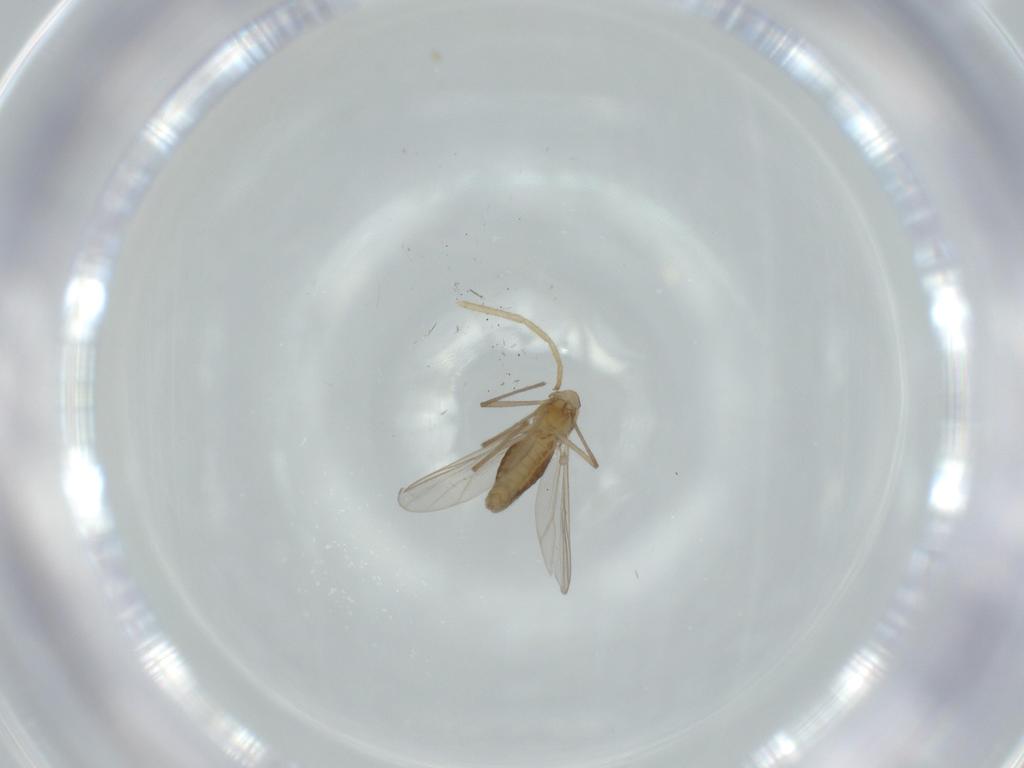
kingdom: Animalia
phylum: Arthropoda
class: Insecta
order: Diptera
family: Chironomidae
